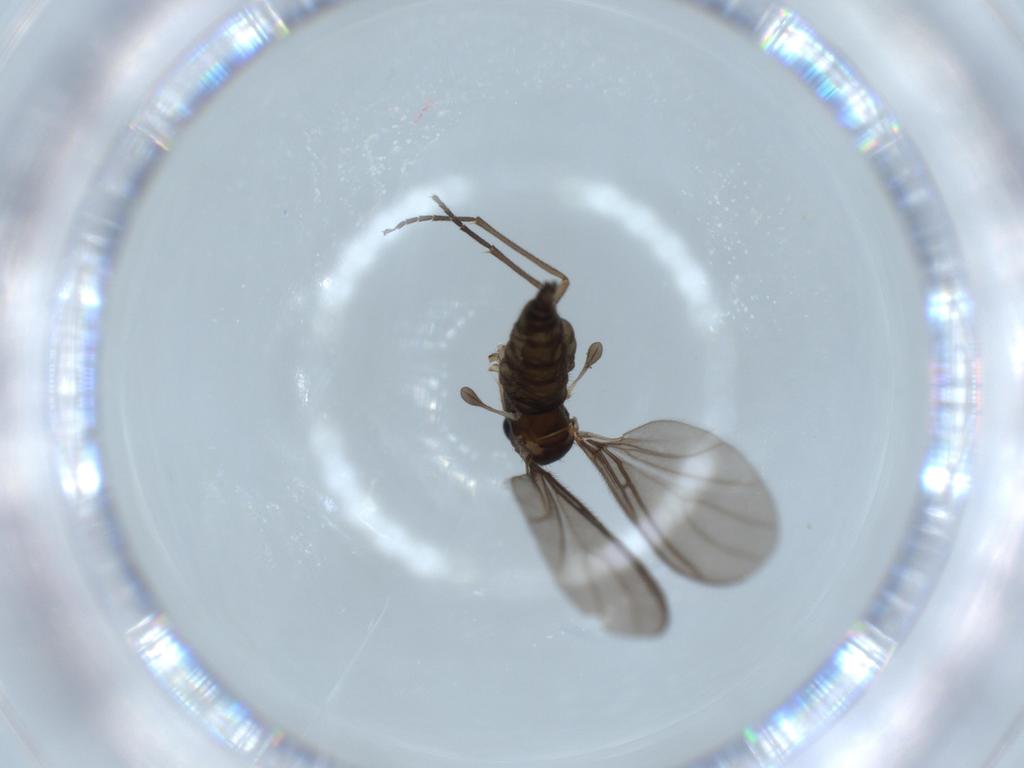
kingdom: Animalia
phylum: Arthropoda
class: Insecta
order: Diptera
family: Sciaridae
